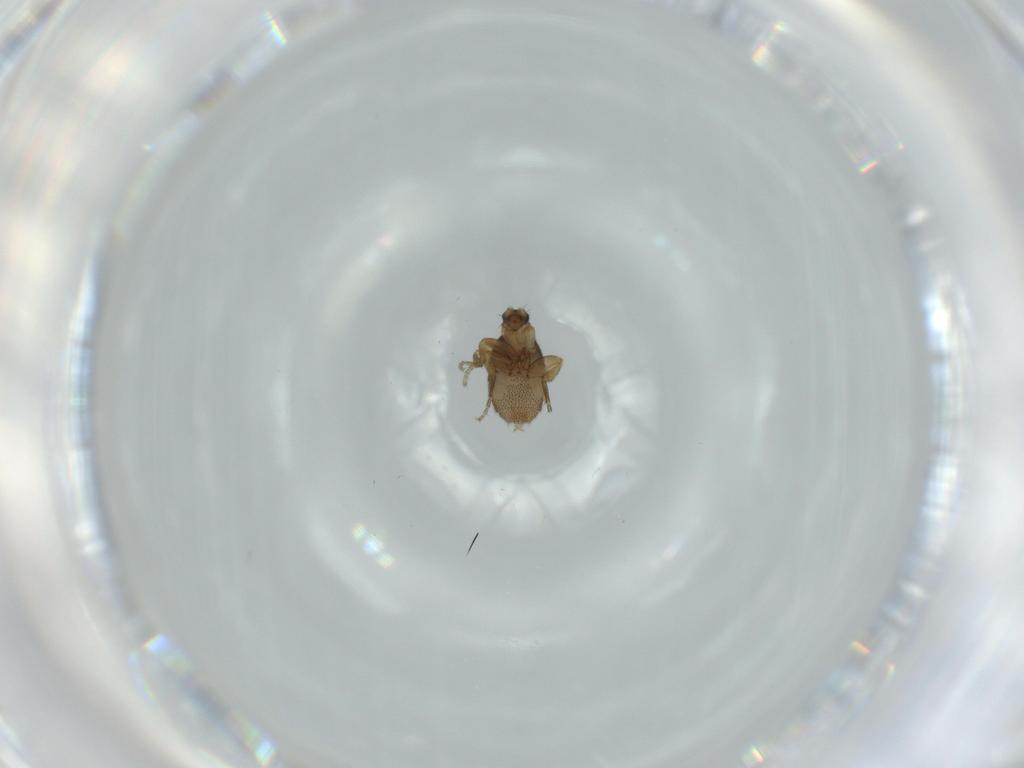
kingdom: Animalia
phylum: Arthropoda
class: Insecta
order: Diptera
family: Phoridae
